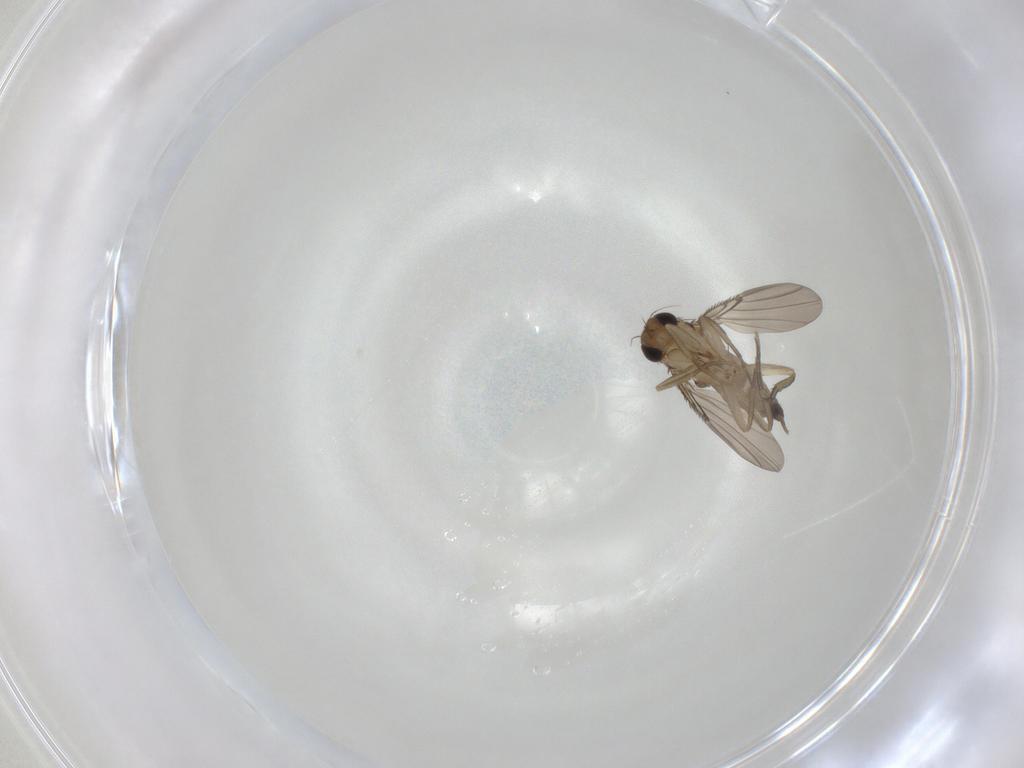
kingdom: Animalia
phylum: Arthropoda
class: Insecta
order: Diptera
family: Phoridae
